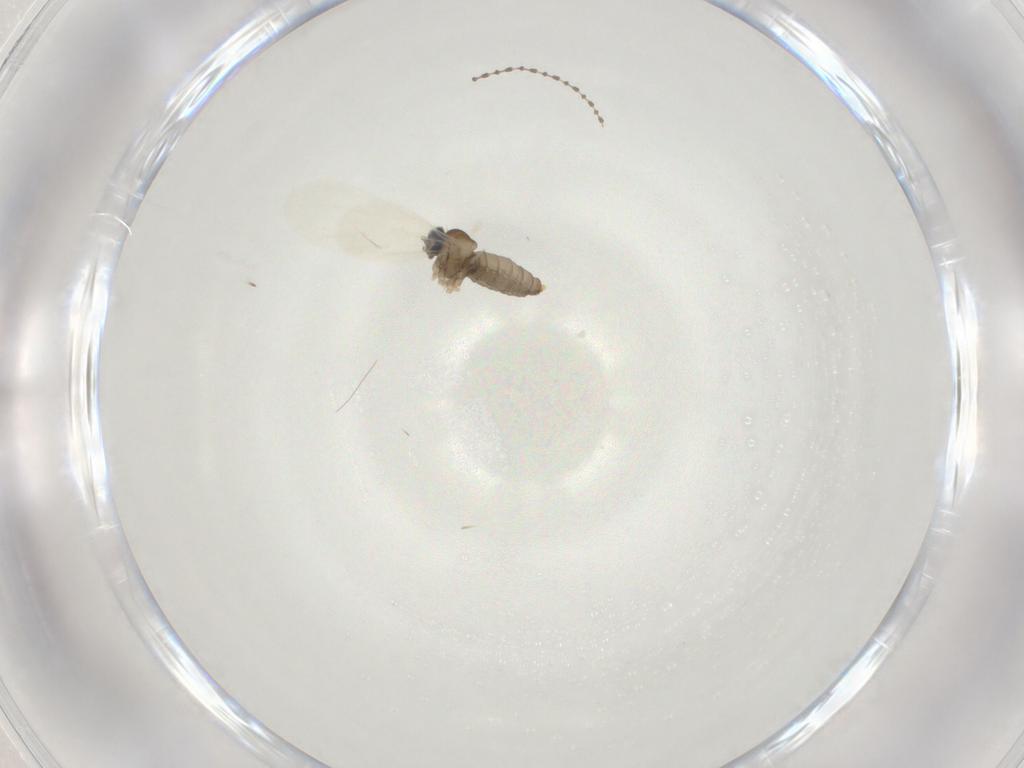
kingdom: Animalia
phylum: Arthropoda
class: Insecta
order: Diptera
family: Cecidomyiidae
